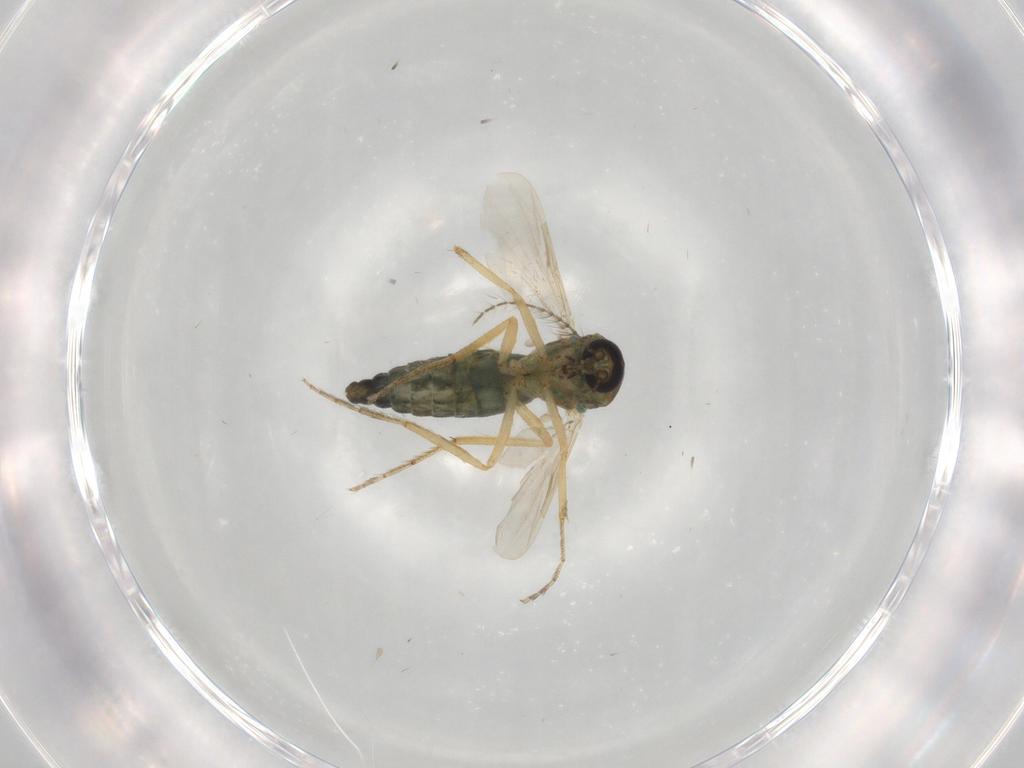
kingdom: Animalia
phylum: Arthropoda
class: Insecta
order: Diptera
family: Ceratopogonidae
